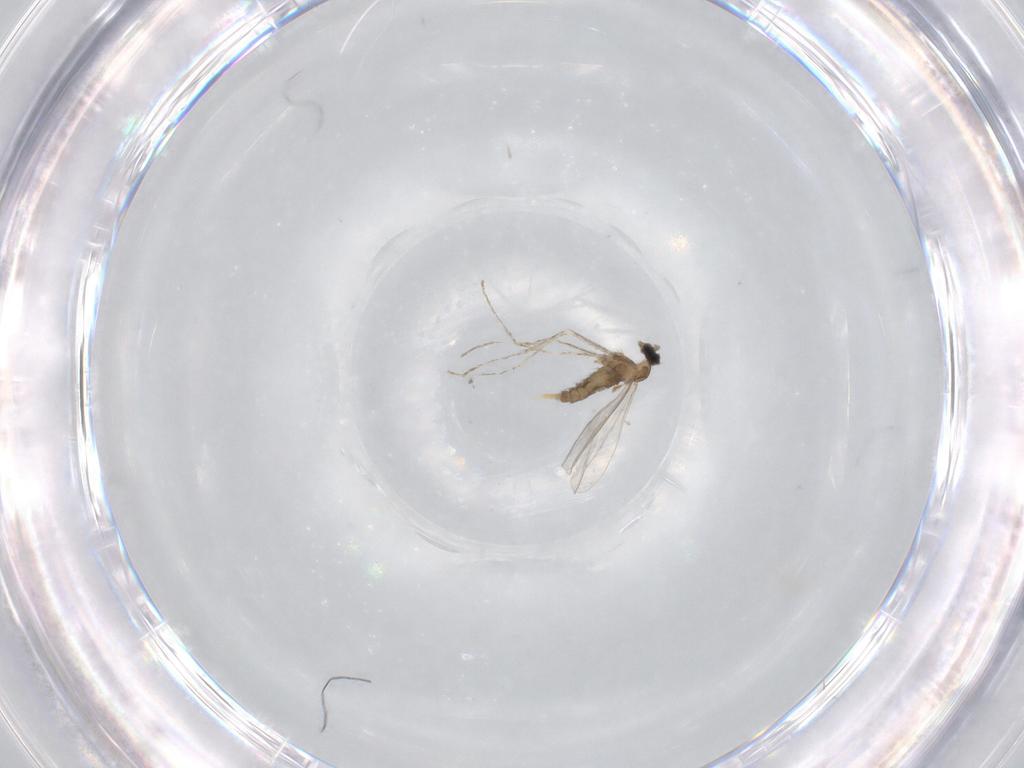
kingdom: Animalia
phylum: Arthropoda
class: Insecta
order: Diptera
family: Cecidomyiidae
